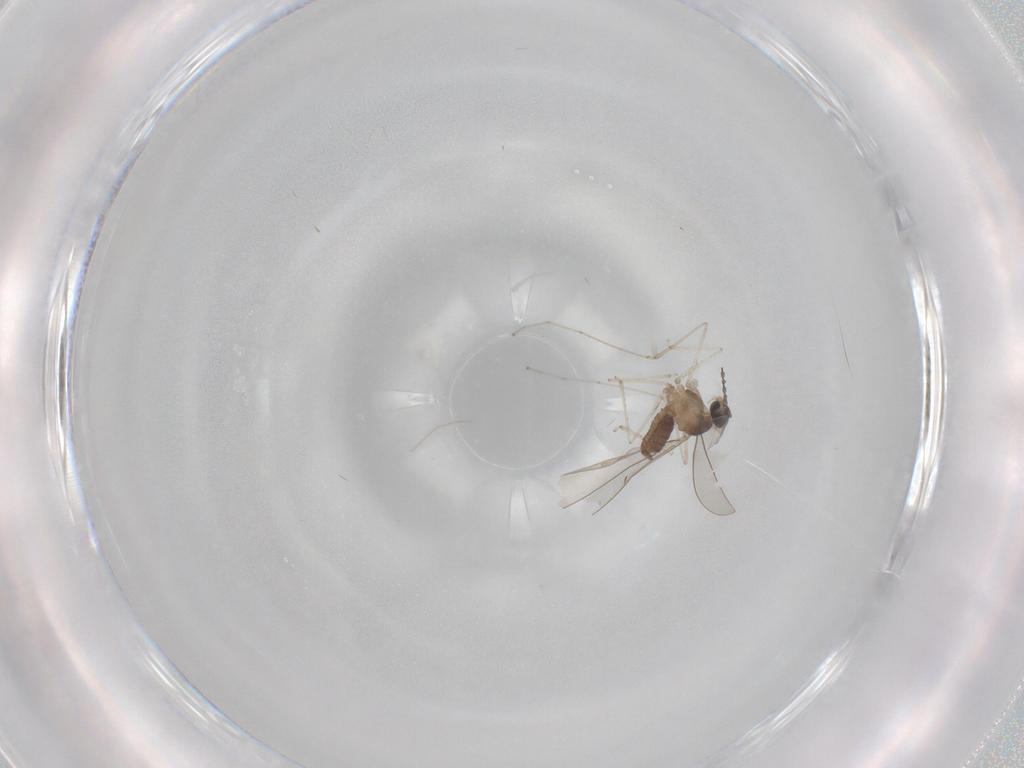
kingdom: Animalia
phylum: Arthropoda
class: Insecta
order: Diptera
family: Cecidomyiidae
